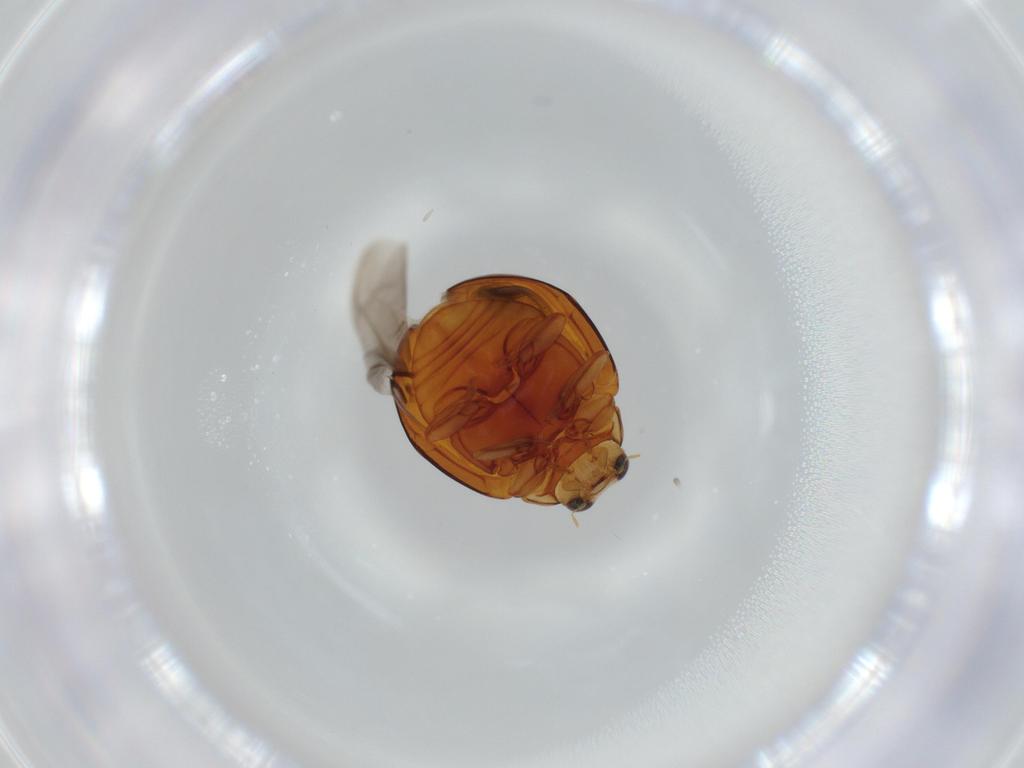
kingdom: Animalia
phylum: Arthropoda
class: Insecta
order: Coleoptera
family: Coccinellidae
